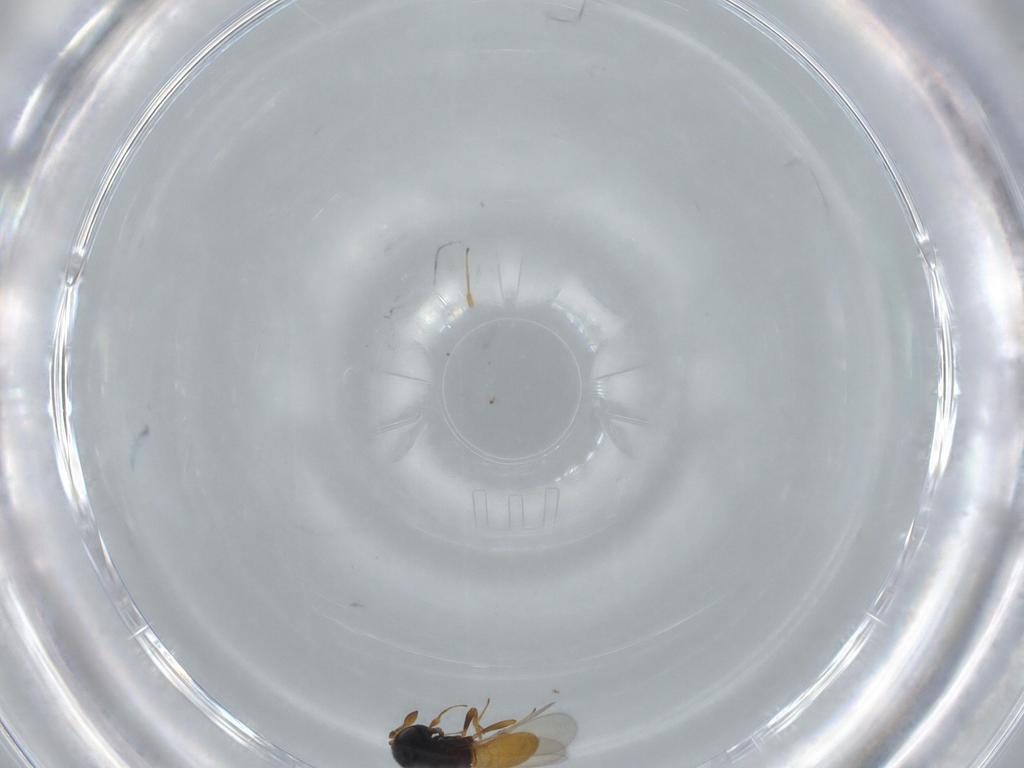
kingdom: Animalia
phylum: Arthropoda
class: Insecta
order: Hymenoptera
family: Scelionidae
